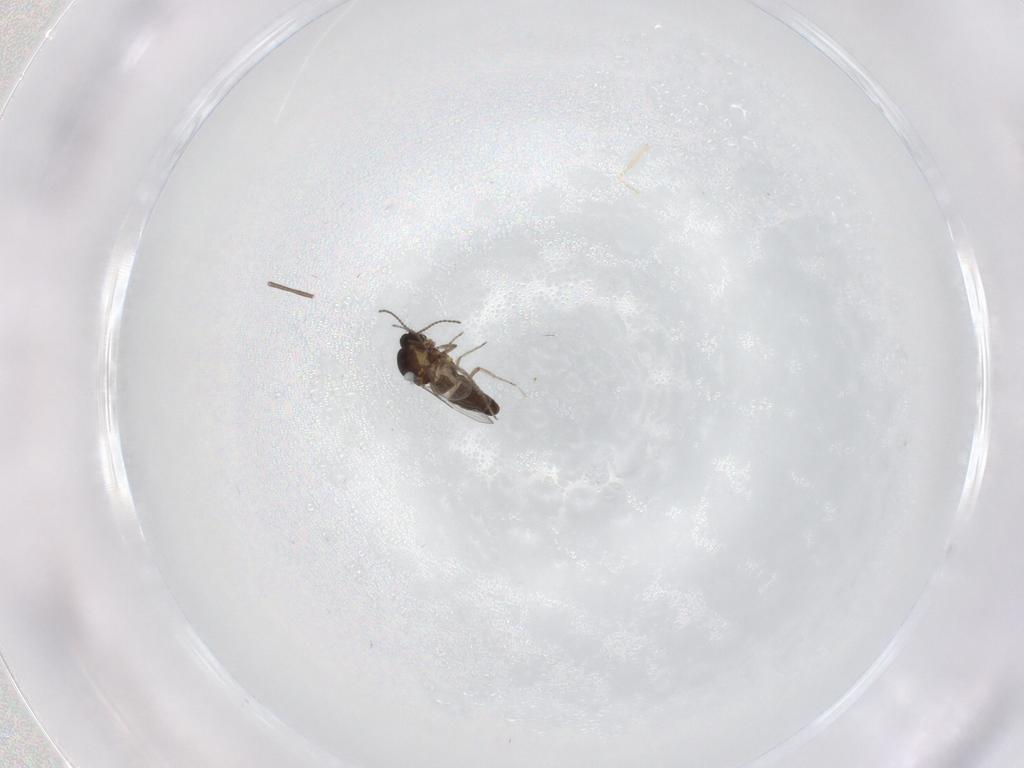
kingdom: Animalia
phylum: Arthropoda
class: Insecta
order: Diptera
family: Ceratopogonidae
